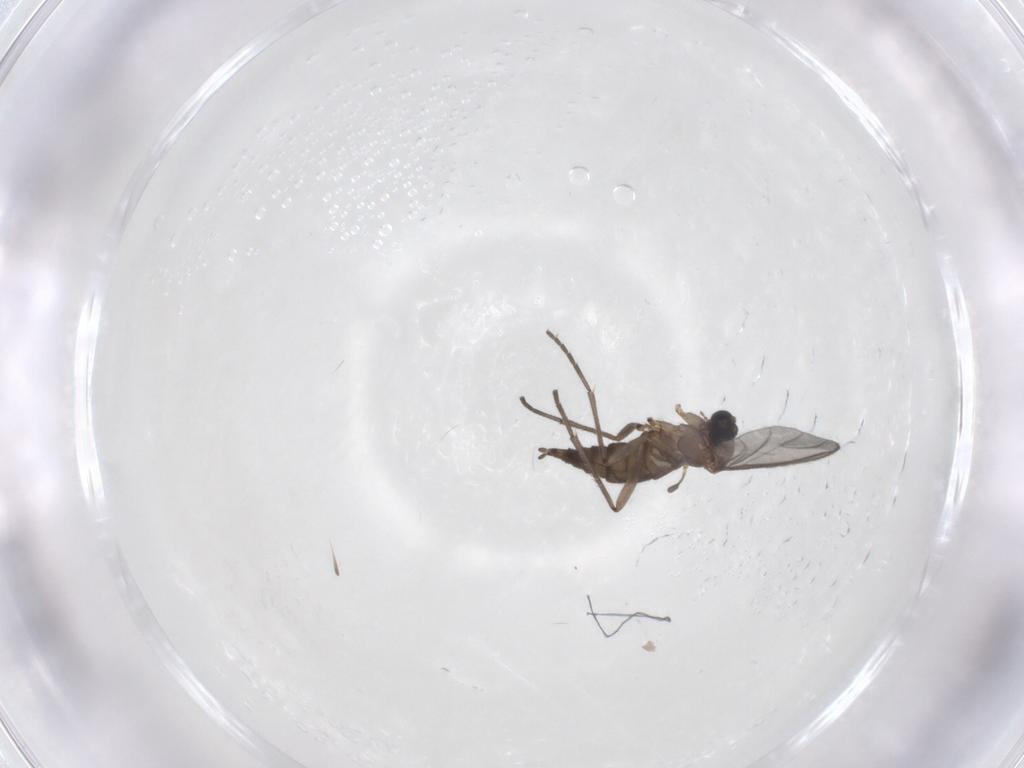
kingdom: Animalia
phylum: Arthropoda
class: Insecta
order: Diptera
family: Sciaridae
